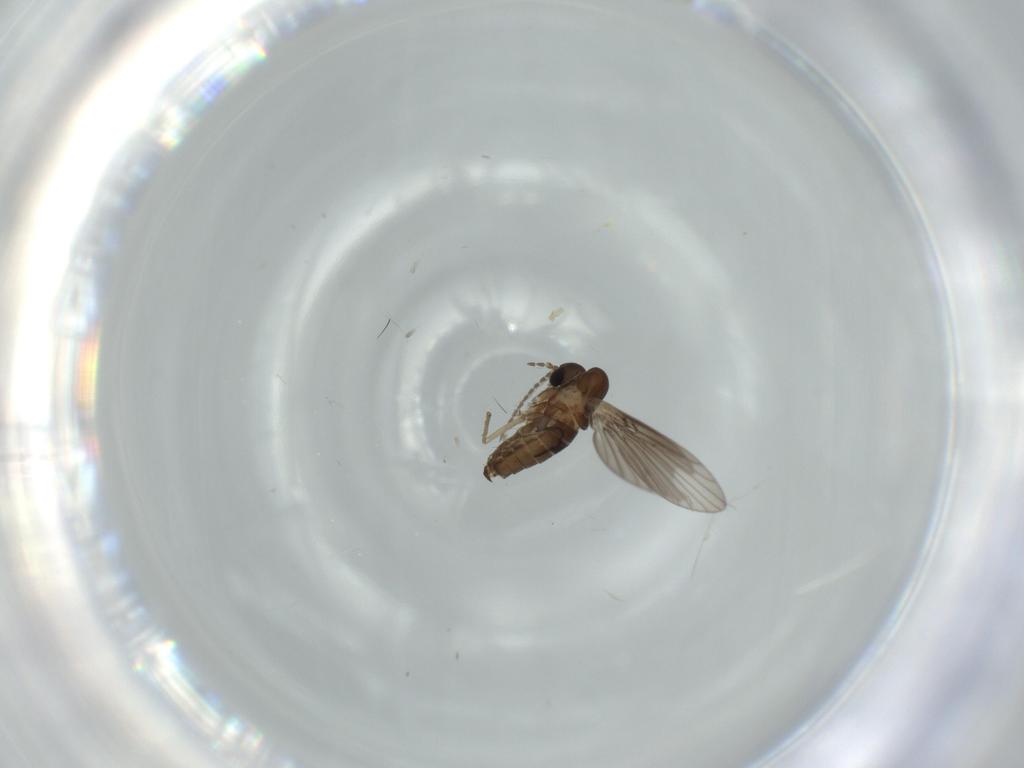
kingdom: Animalia
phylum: Arthropoda
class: Insecta
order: Diptera
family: Psychodidae
